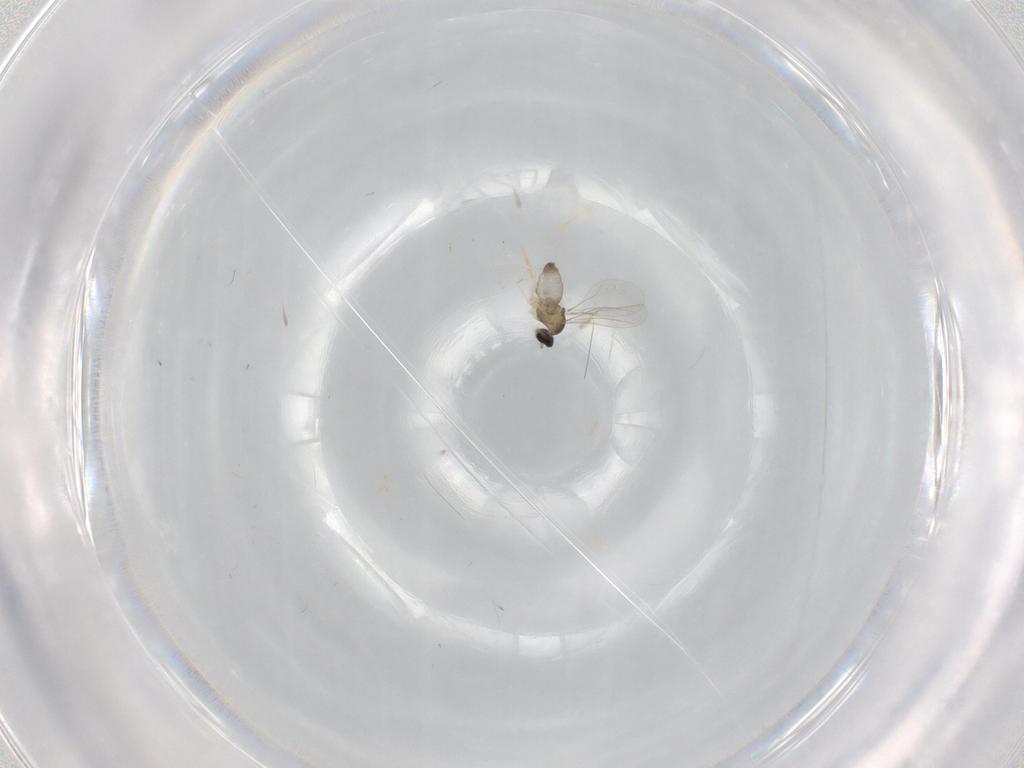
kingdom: Animalia
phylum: Arthropoda
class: Insecta
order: Diptera
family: Cecidomyiidae
